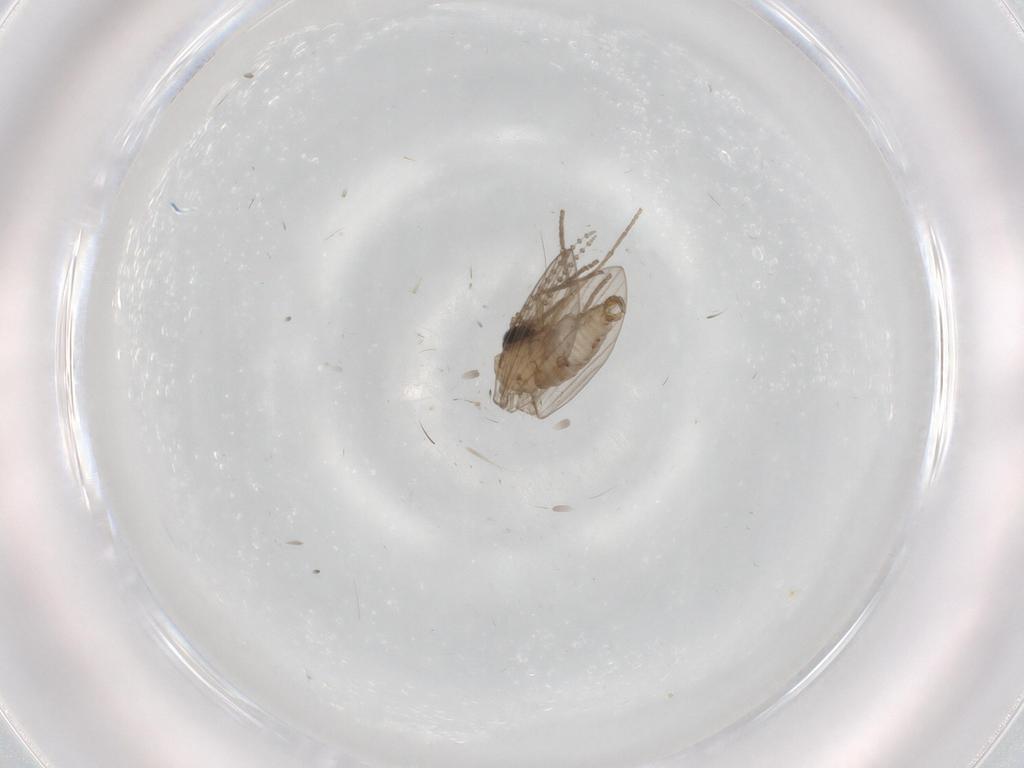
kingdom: Animalia
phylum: Arthropoda
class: Insecta
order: Diptera
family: Psychodidae
